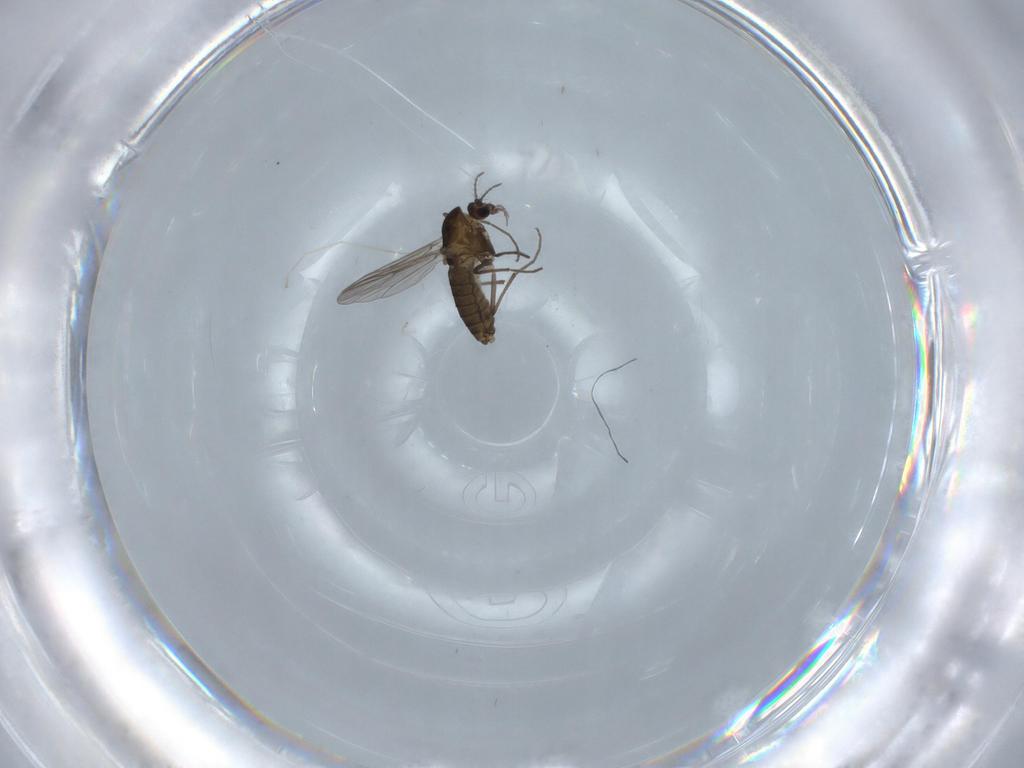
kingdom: Animalia
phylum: Arthropoda
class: Insecta
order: Diptera
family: Chironomidae
